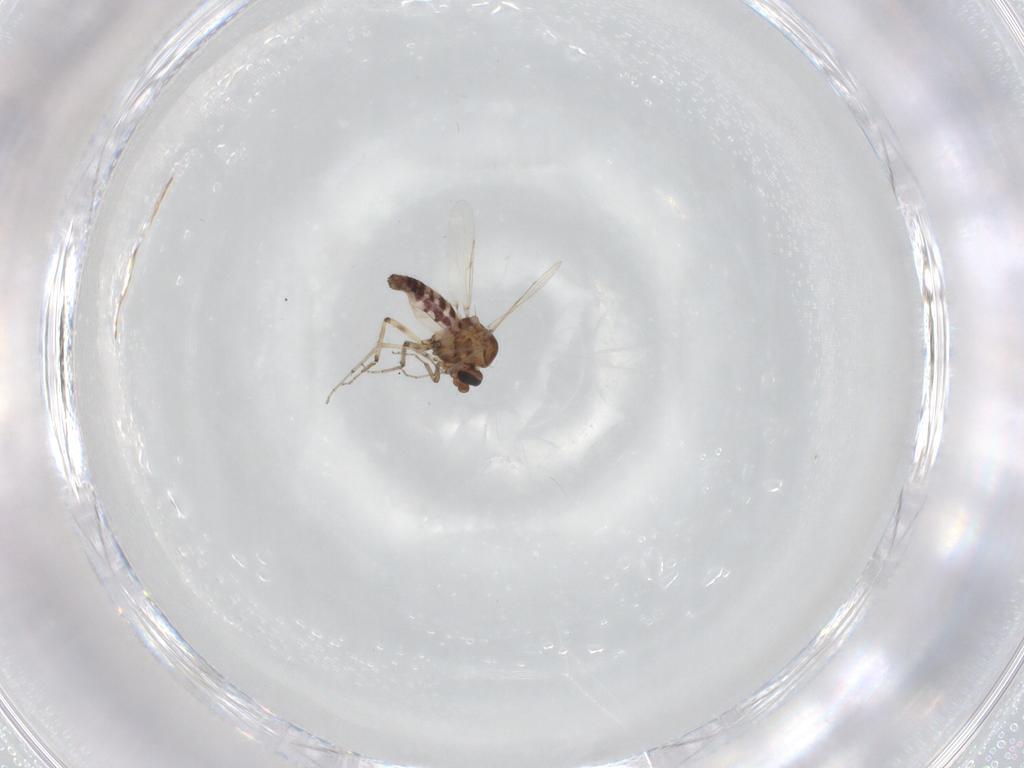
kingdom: Animalia
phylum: Arthropoda
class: Insecta
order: Diptera
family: Ceratopogonidae
